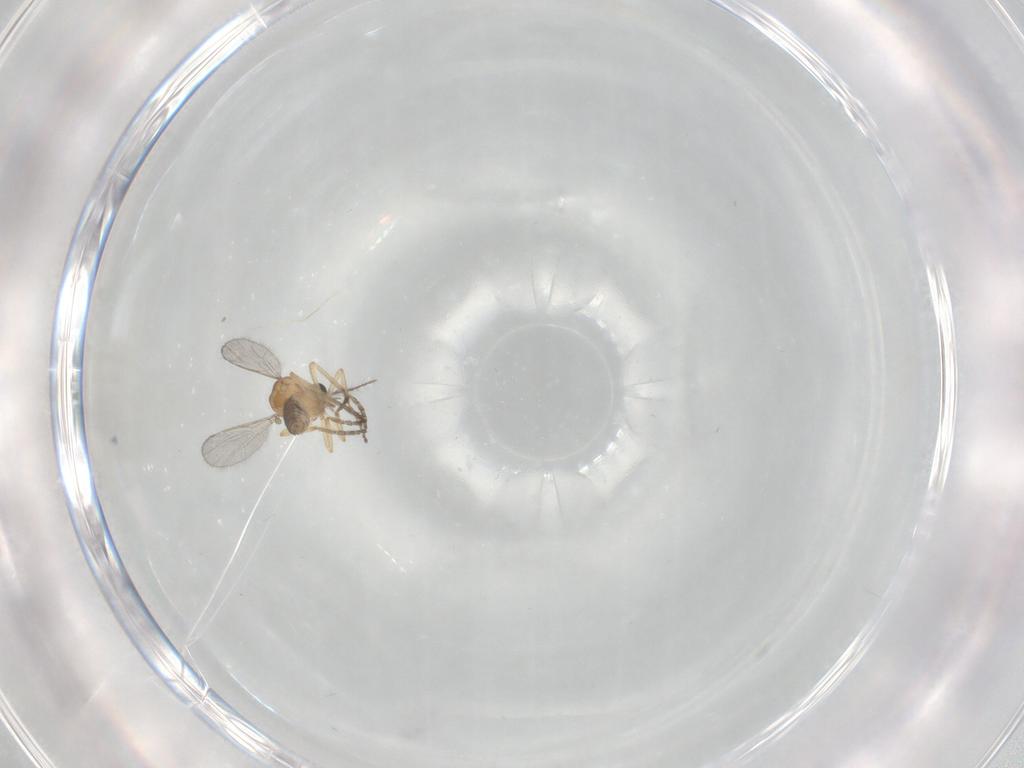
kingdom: Animalia
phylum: Arthropoda
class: Insecta
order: Diptera
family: Ceratopogonidae
